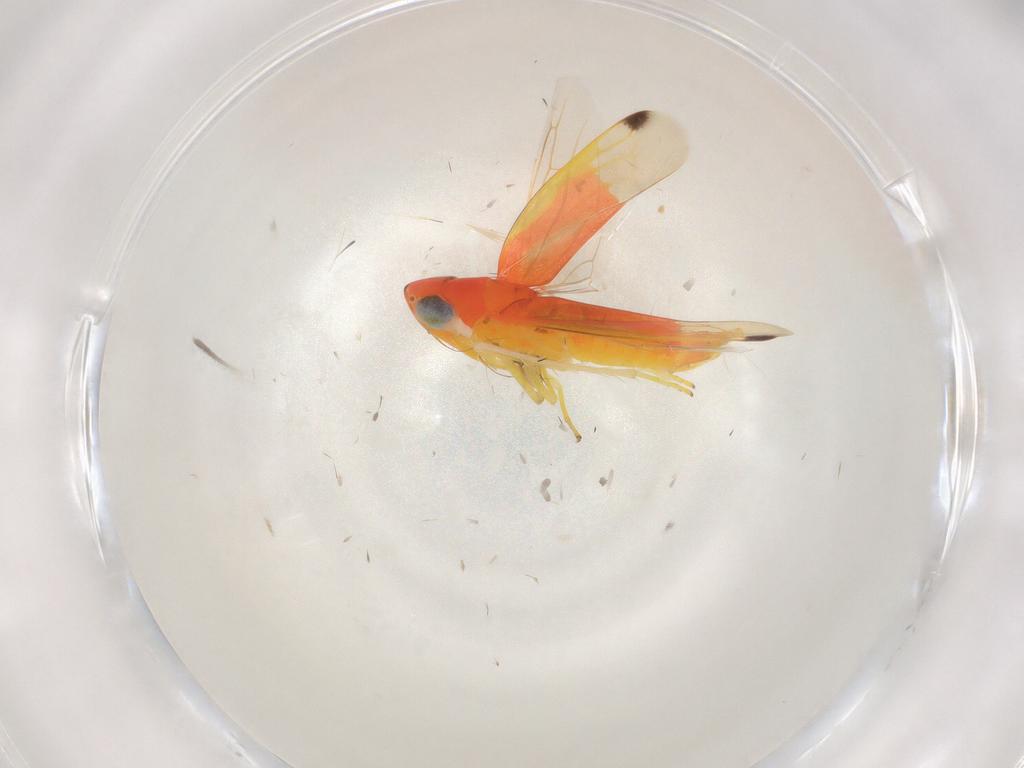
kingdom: Animalia
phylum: Arthropoda
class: Insecta
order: Hemiptera
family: Cicadellidae
